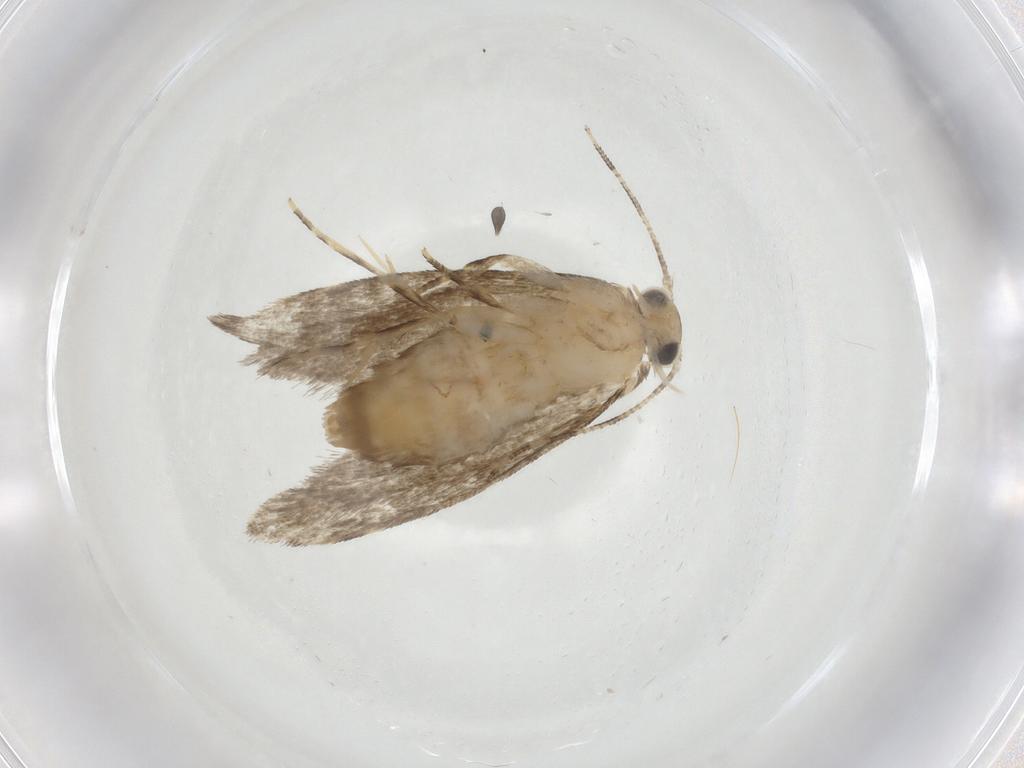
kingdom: Animalia
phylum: Arthropoda
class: Insecta
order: Lepidoptera
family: Tineidae
